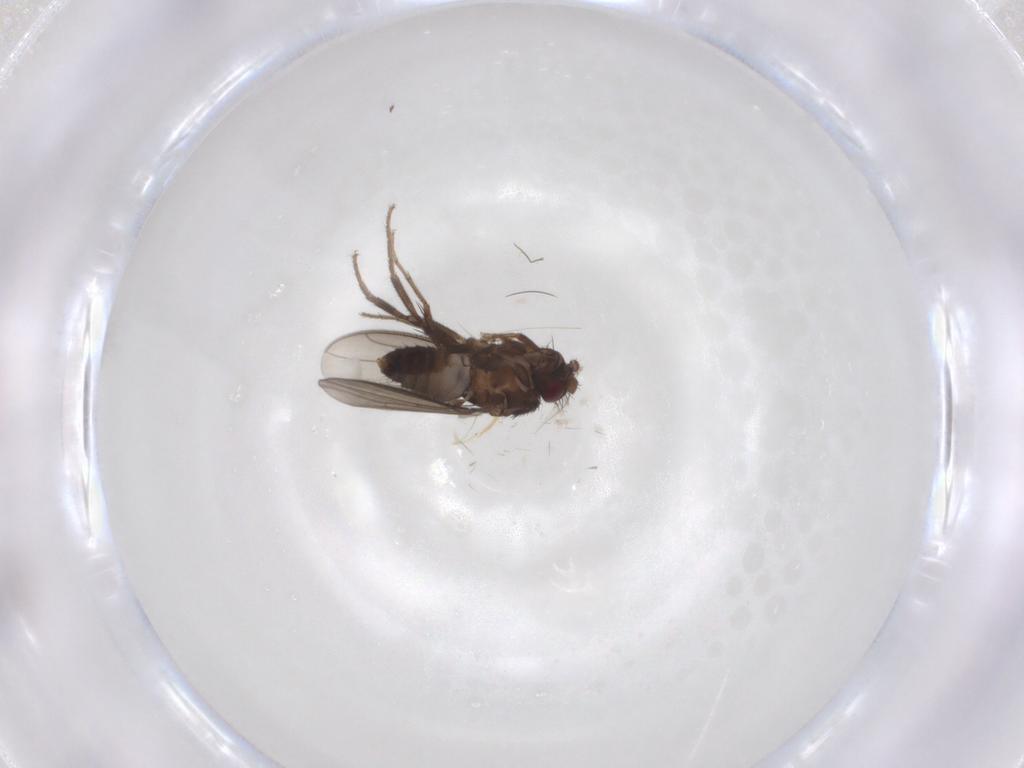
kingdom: Animalia
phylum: Arthropoda
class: Insecta
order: Diptera
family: Sphaeroceridae
